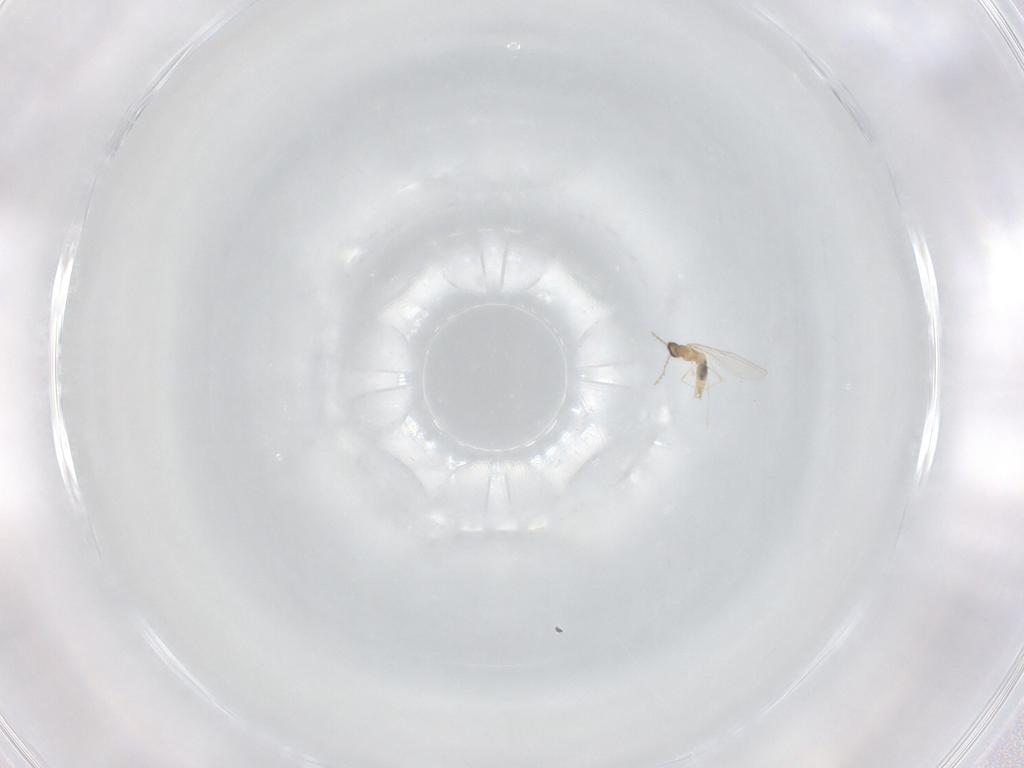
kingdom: Animalia
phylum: Arthropoda
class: Insecta
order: Diptera
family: Cecidomyiidae
